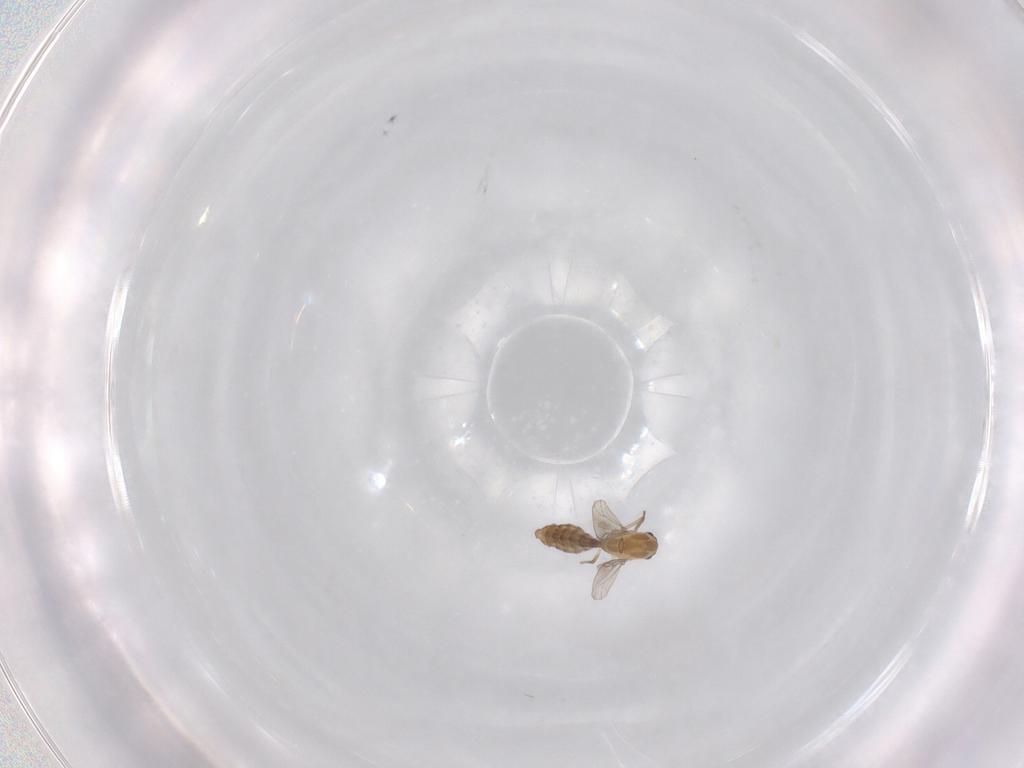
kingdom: Animalia
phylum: Arthropoda
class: Insecta
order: Diptera
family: Chironomidae
